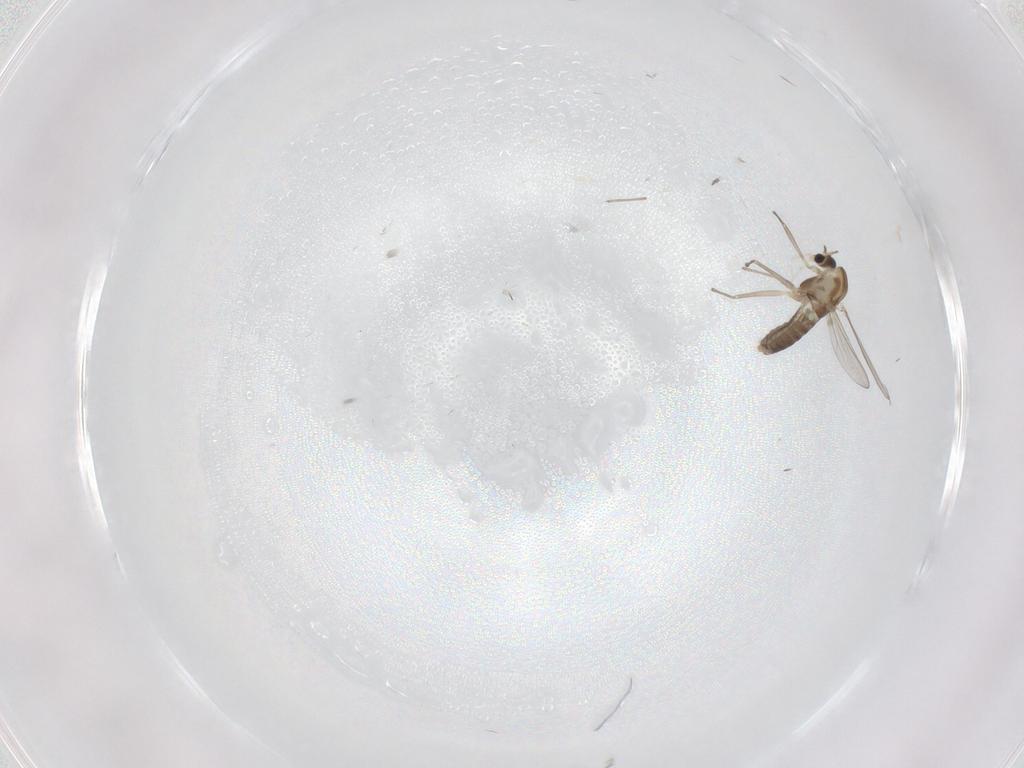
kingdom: Animalia
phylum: Arthropoda
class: Insecta
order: Diptera
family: Chironomidae
